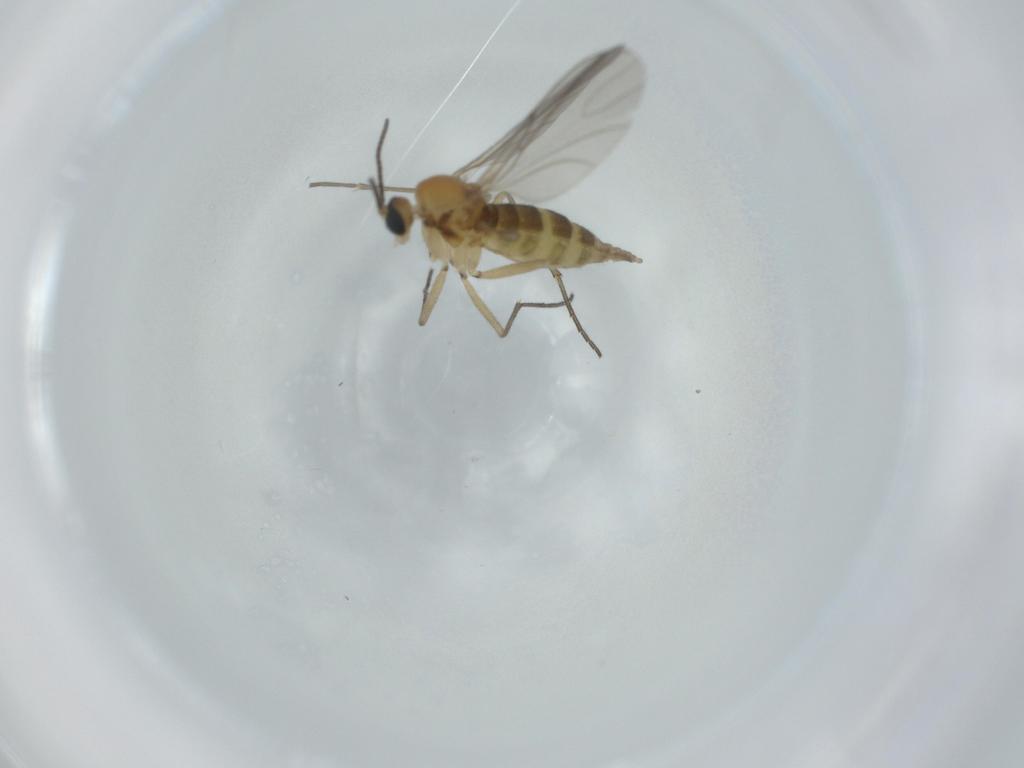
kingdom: Animalia
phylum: Arthropoda
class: Insecta
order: Diptera
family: Sciaridae
